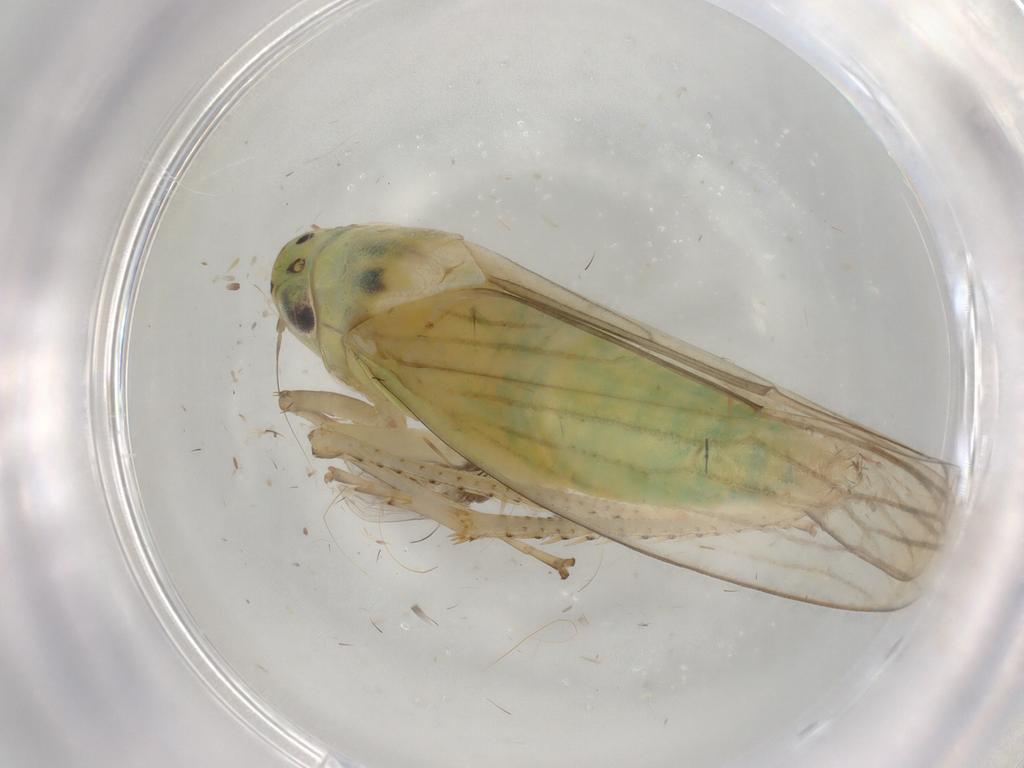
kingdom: Animalia
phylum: Arthropoda
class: Insecta
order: Hemiptera
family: Cicadellidae
